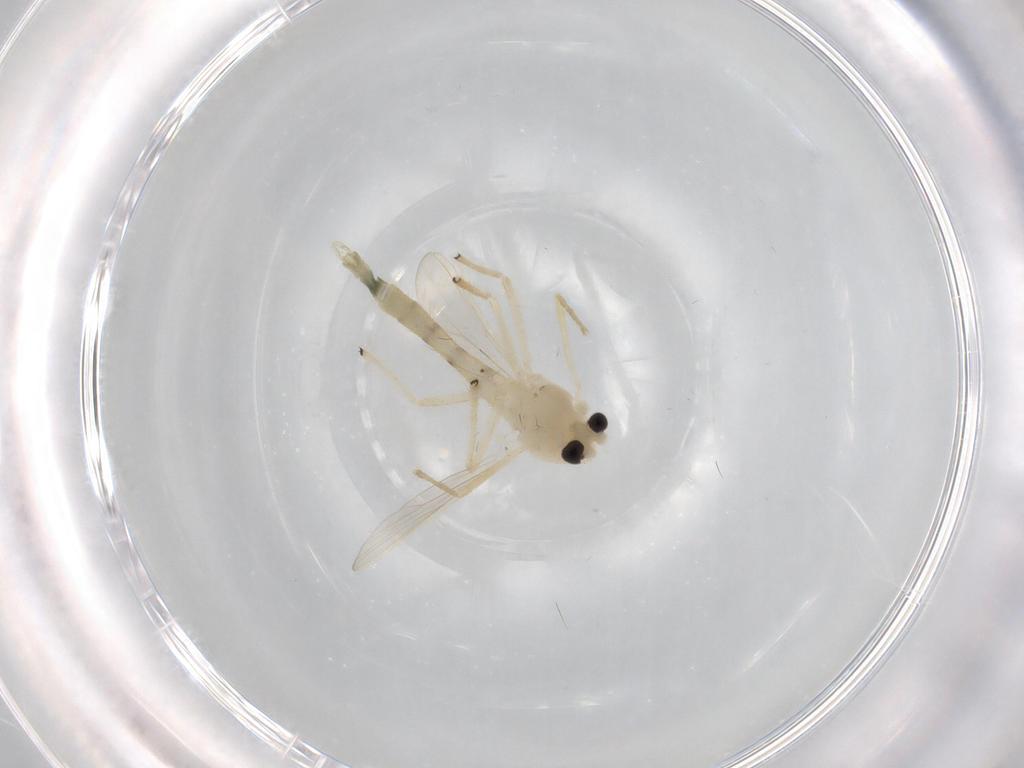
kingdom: Animalia
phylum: Arthropoda
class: Insecta
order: Diptera
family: Chironomidae
